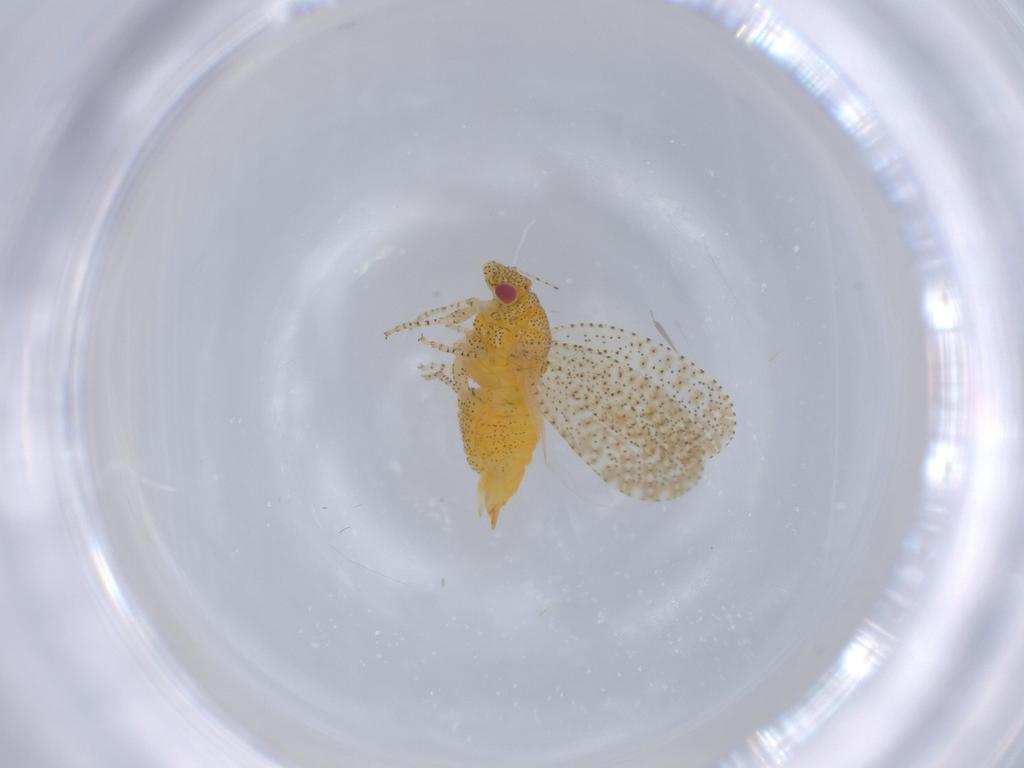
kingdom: Animalia
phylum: Arthropoda
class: Insecta
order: Hemiptera
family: Psyllidae
